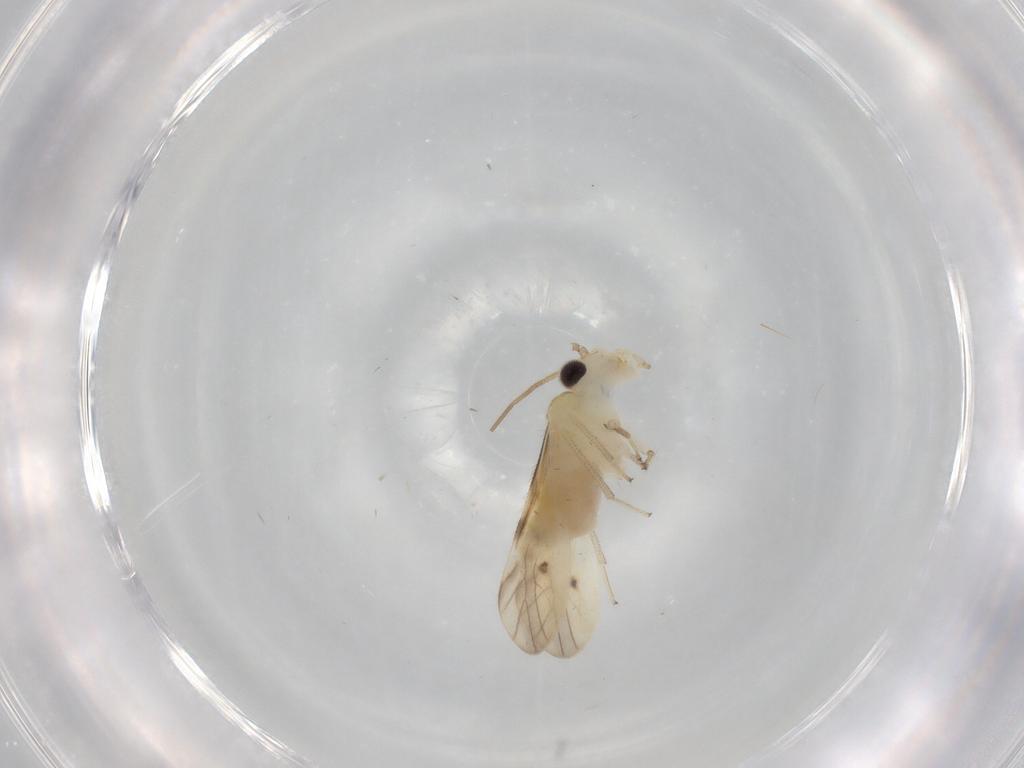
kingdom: Animalia
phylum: Arthropoda
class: Insecta
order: Psocodea
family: Caeciliusidae
